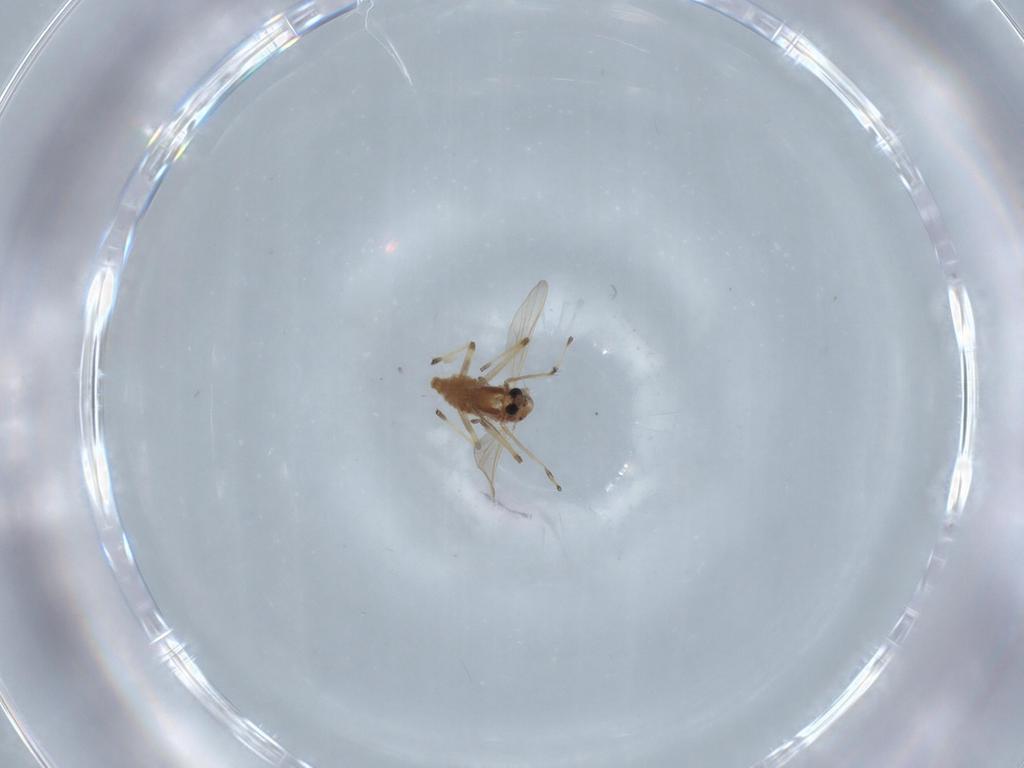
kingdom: Animalia
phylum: Arthropoda
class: Insecta
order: Diptera
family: Chironomidae
